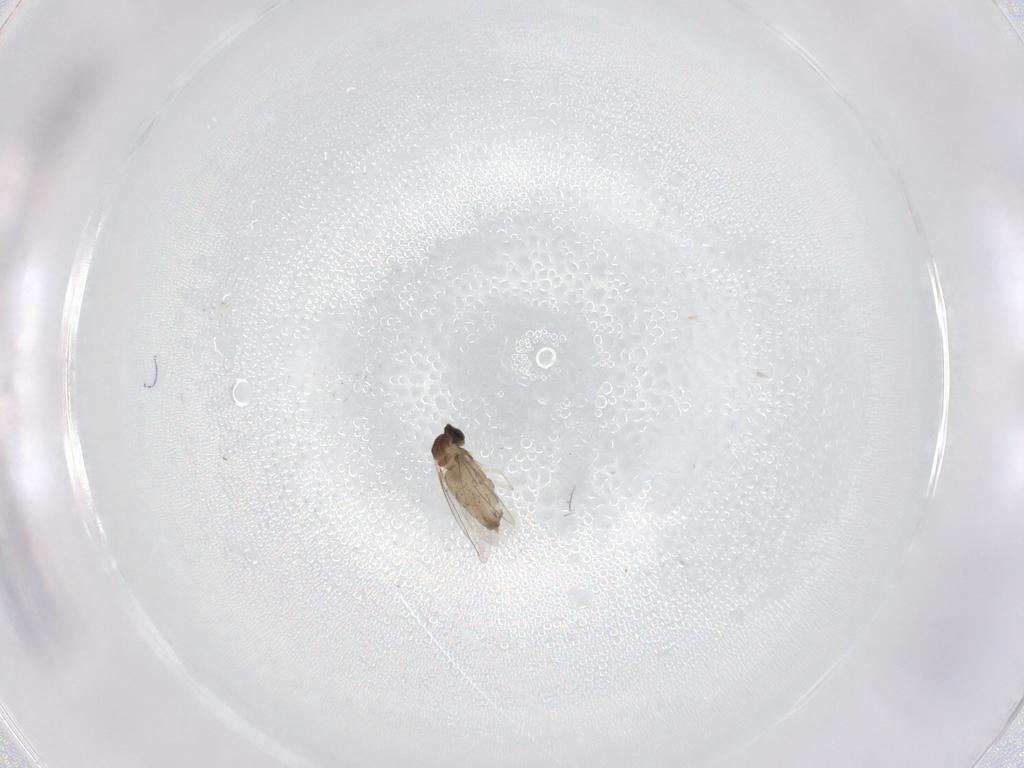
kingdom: Animalia
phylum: Arthropoda
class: Insecta
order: Diptera
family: Cecidomyiidae
